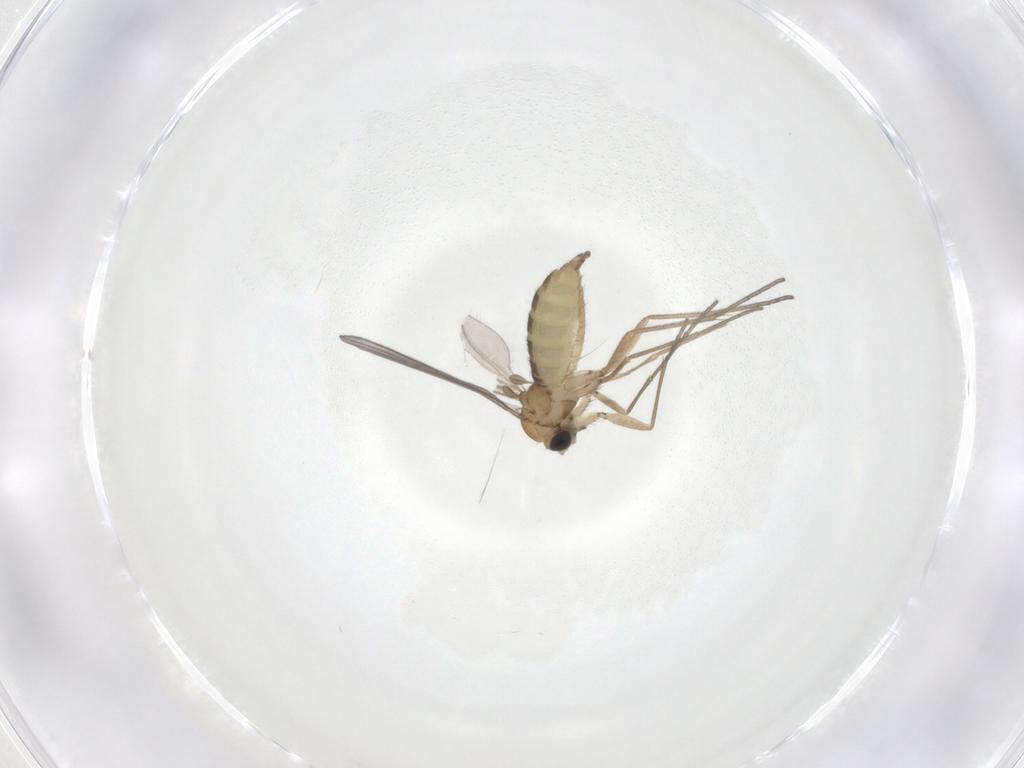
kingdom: Animalia
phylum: Arthropoda
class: Insecta
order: Diptera
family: Sciaridae
